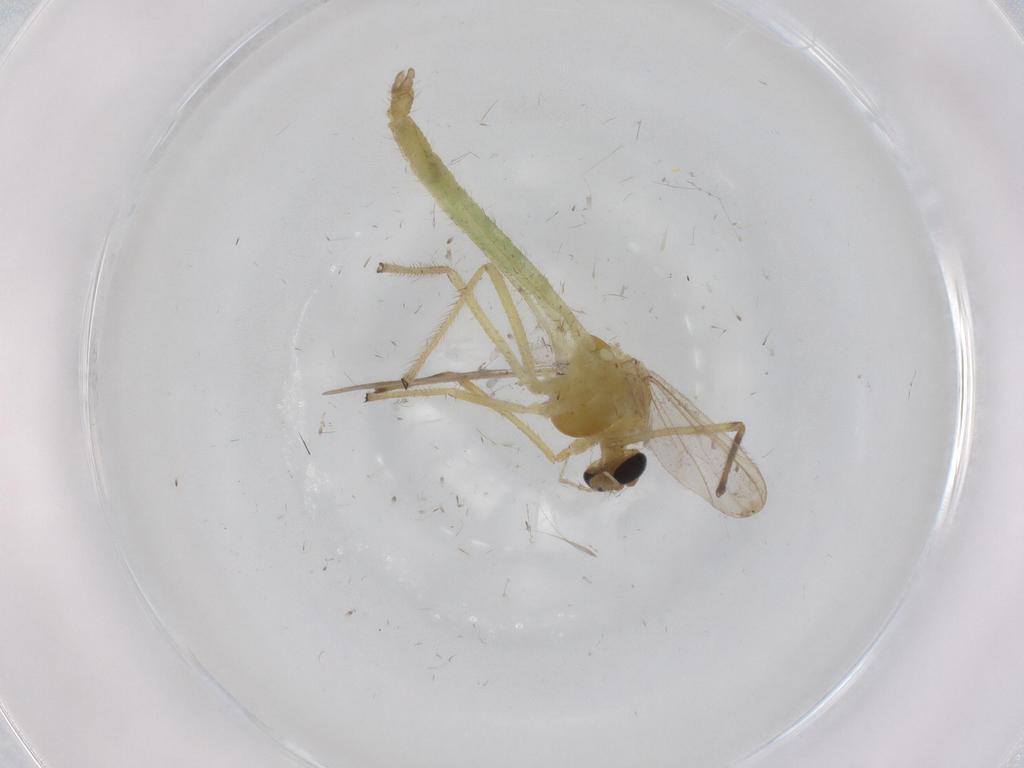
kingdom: Animalia
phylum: Arthropoda
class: Insecta
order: Diptera
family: Chironomidae
